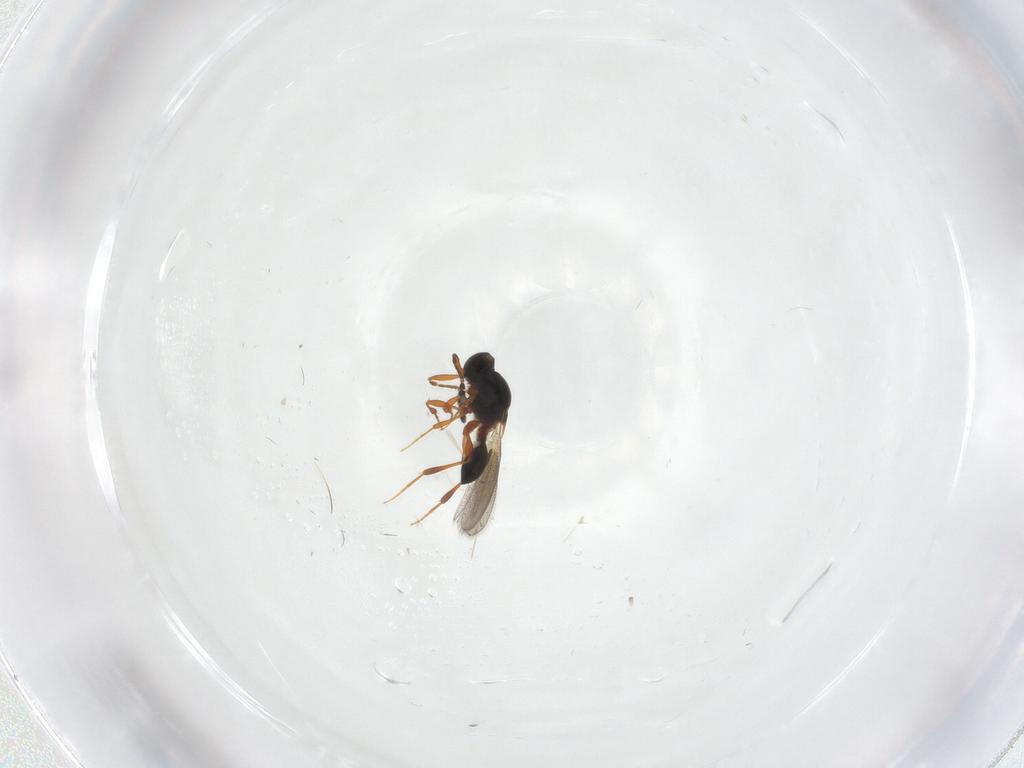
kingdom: Animalia
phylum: Arthropoda
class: Insecta
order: Hymenoptera
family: Platygastridae
